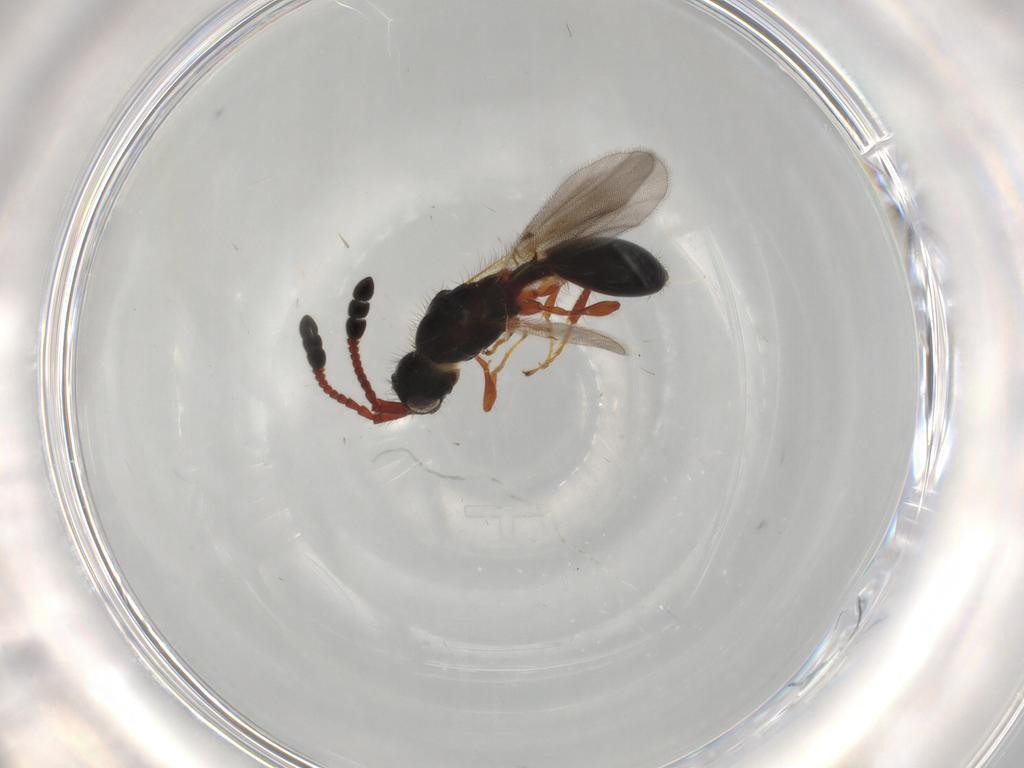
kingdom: Animalia
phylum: Arthropoda
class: Insecta
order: Hymenoptera
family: Diapriidae
